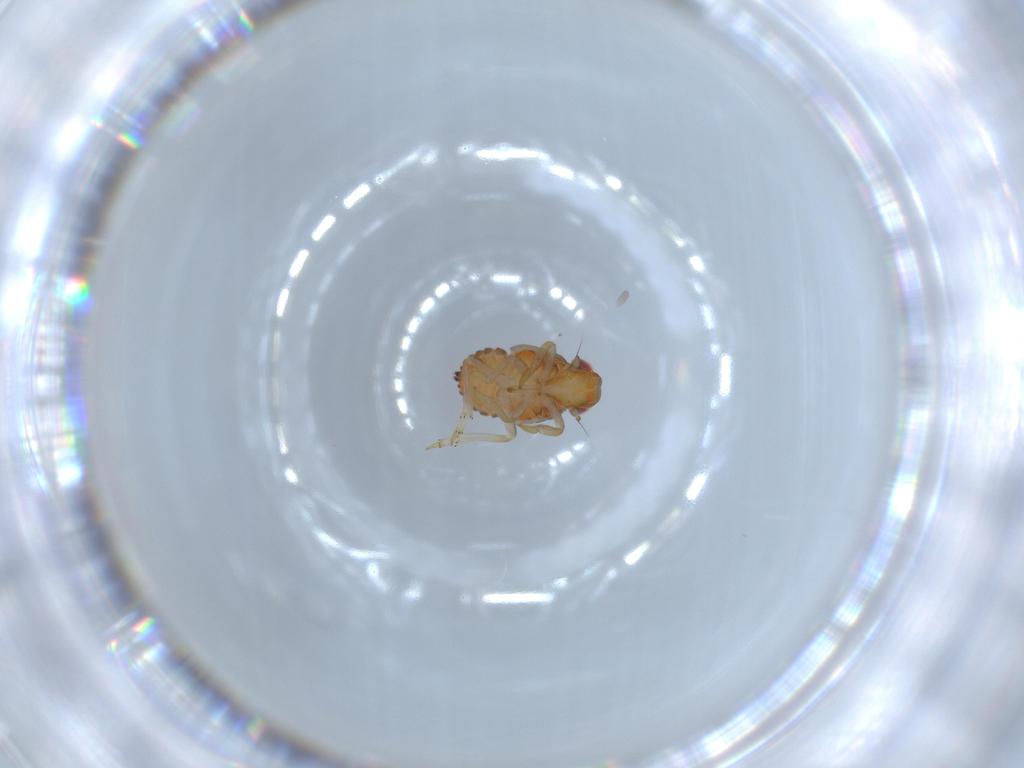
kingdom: Animalia
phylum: Arthropoda
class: Insecta
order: Hemiptera
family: Issidae
